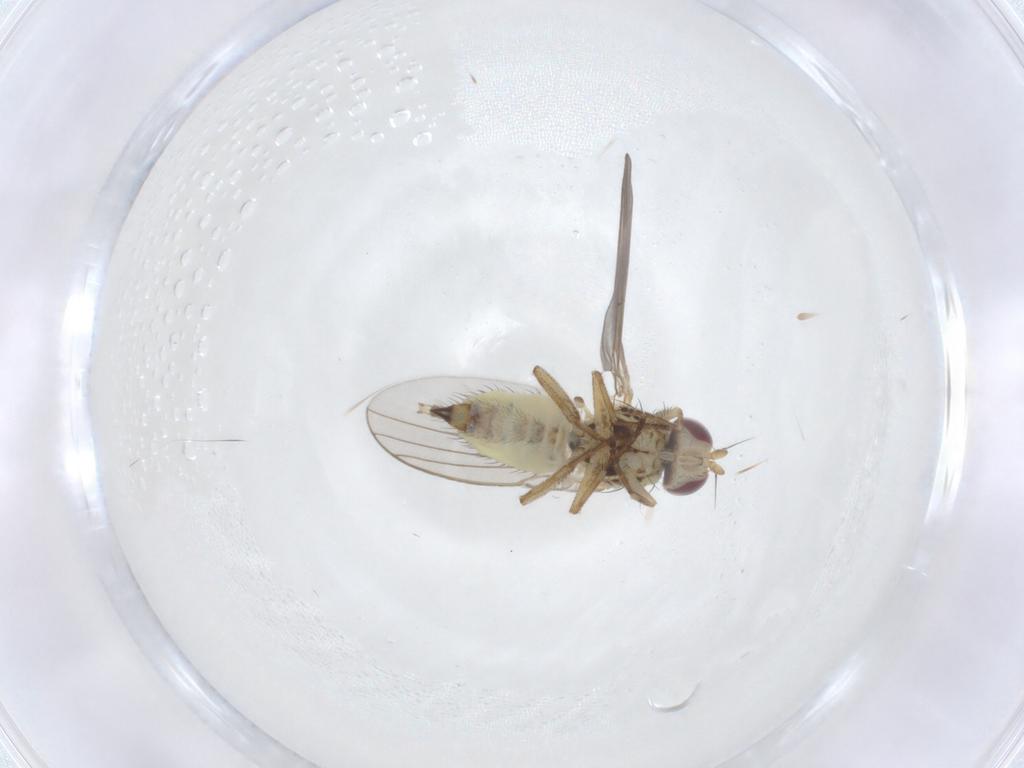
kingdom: Animalia
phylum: Arthropoda
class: Insecta
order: Diptera
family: Agromyzidae
